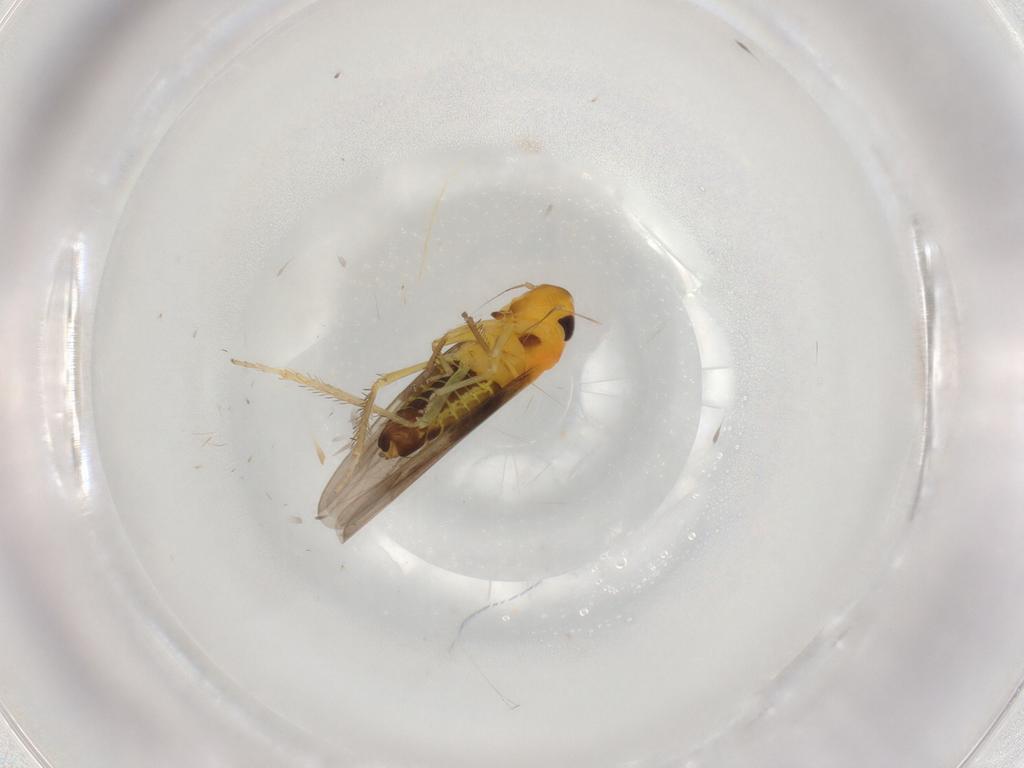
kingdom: Animalia
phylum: Arthropoda
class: Insecta
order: Hemiptera
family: Cicadellidae
